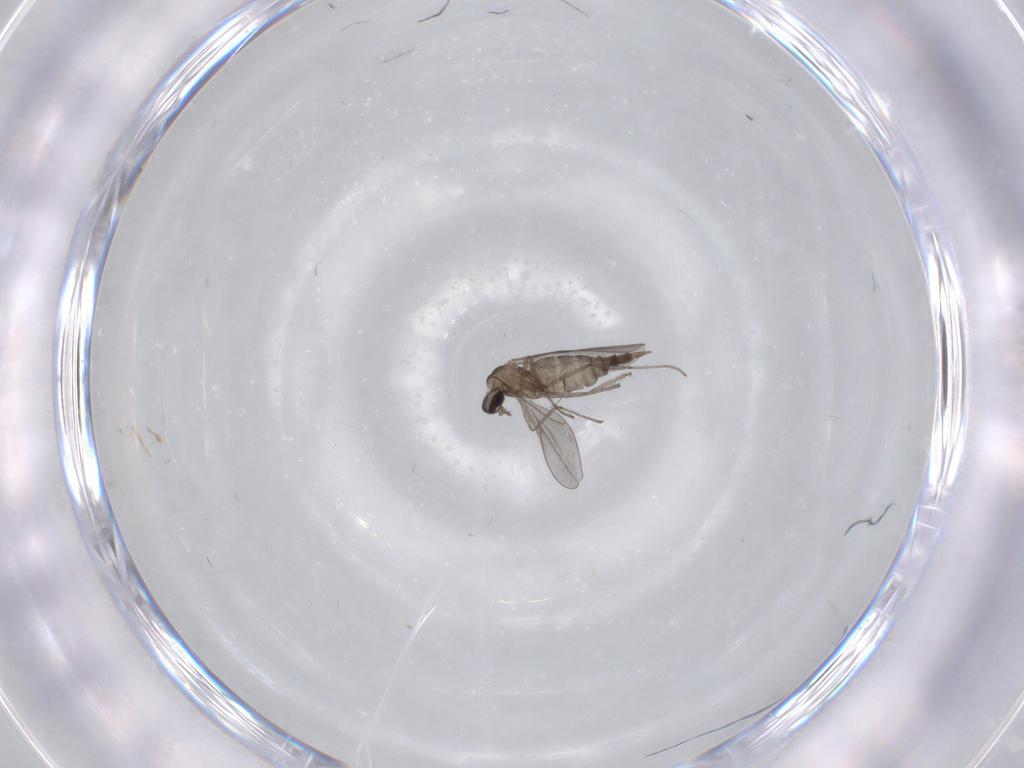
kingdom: Animalia
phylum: Arthropoda
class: Insecta
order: Diptera
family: Cecidomyiidae
